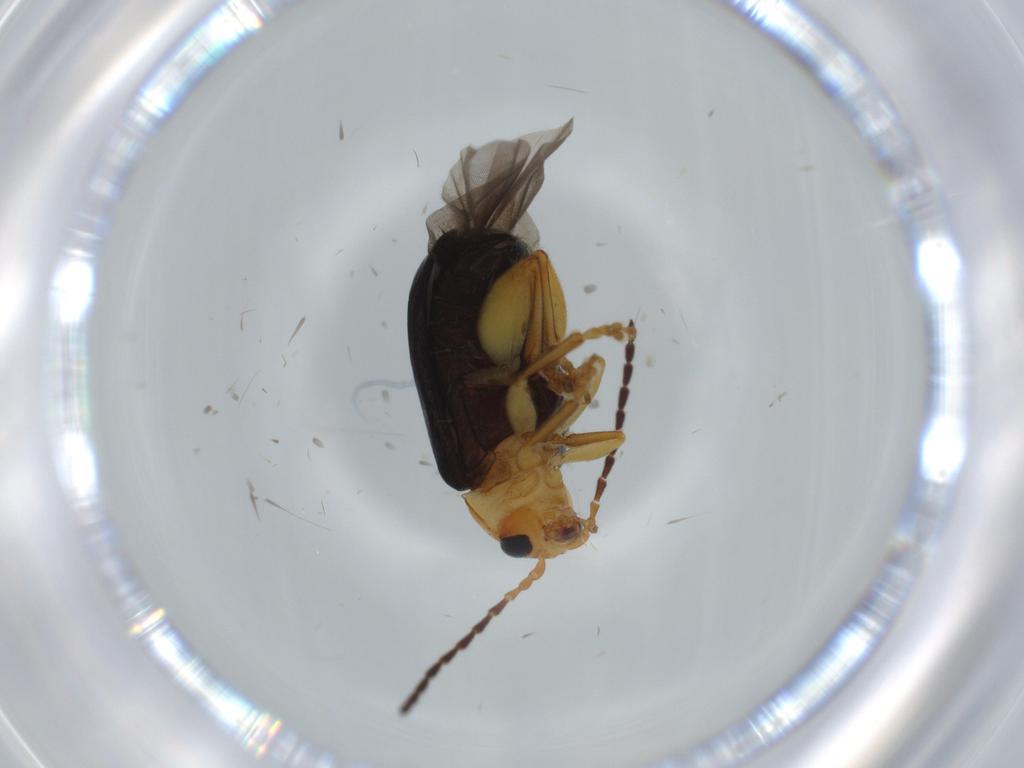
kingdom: Animalia
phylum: Arthropoda
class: Insecta
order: Coleoptera
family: Chrysomelidae
